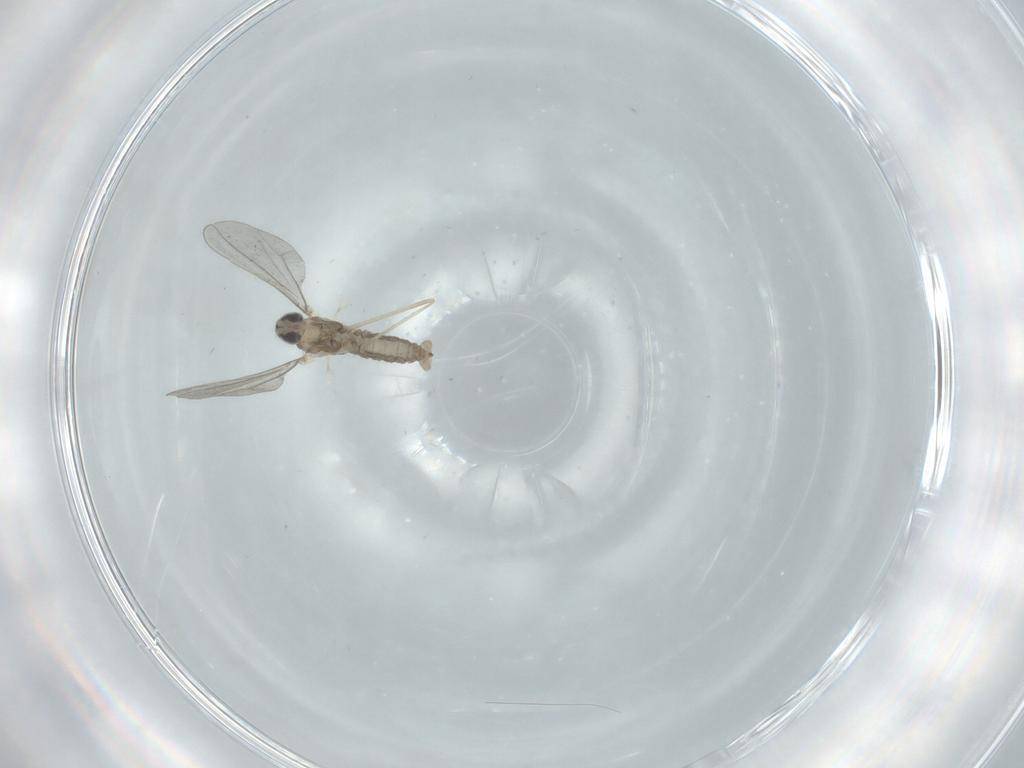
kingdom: Animalia
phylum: Arthropoda
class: Insecta
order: Diptera
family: Cecidomyiidae
